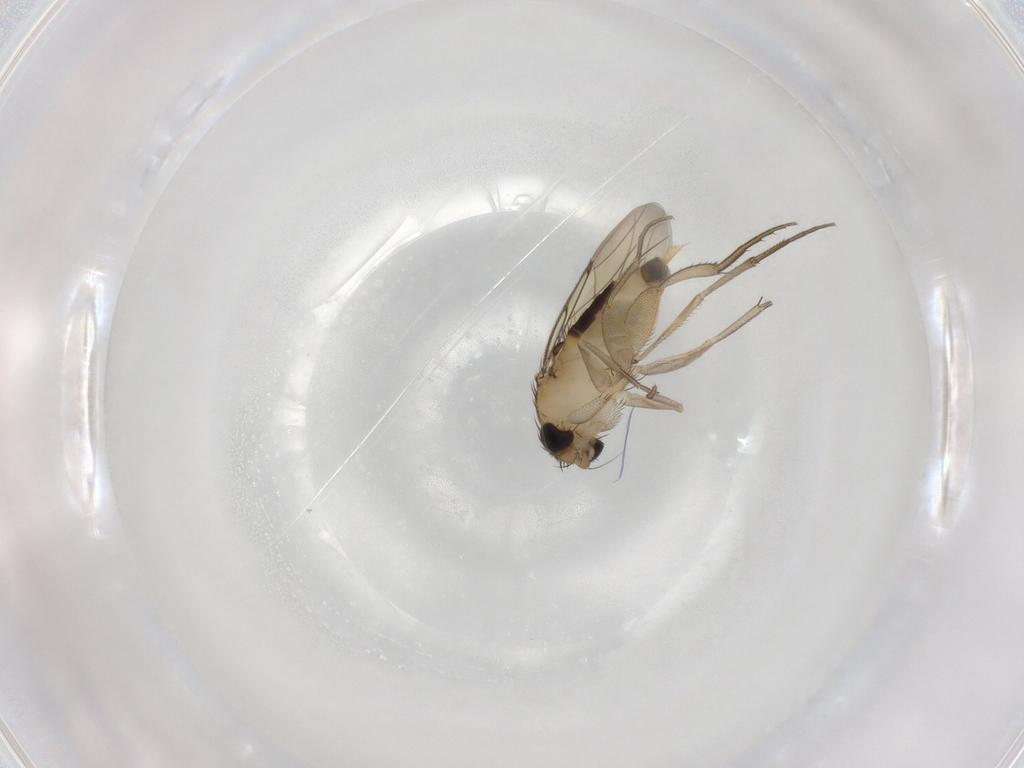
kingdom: Animalia
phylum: Arthropoda
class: Insecta
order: Diptera
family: Phoridae
